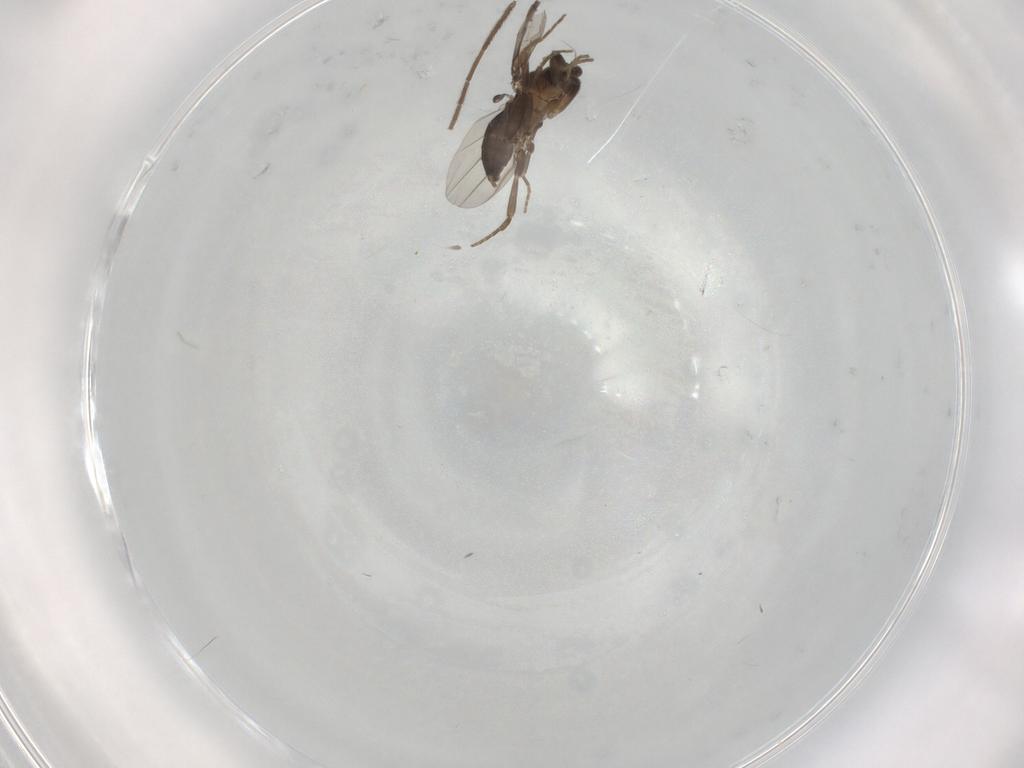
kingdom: Animalia
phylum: Arthropoda
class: Insecta
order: Diptera
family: Phoridae
